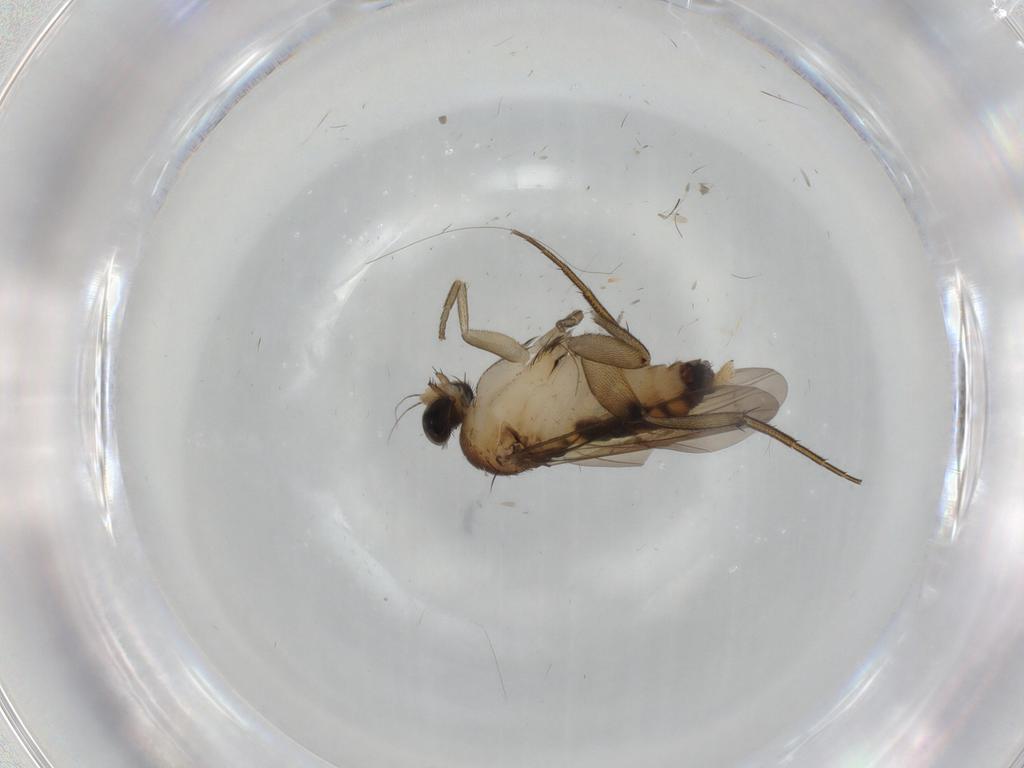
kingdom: Animalia
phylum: Arthropoda
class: Insecta
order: Diptera
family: Phoridae
